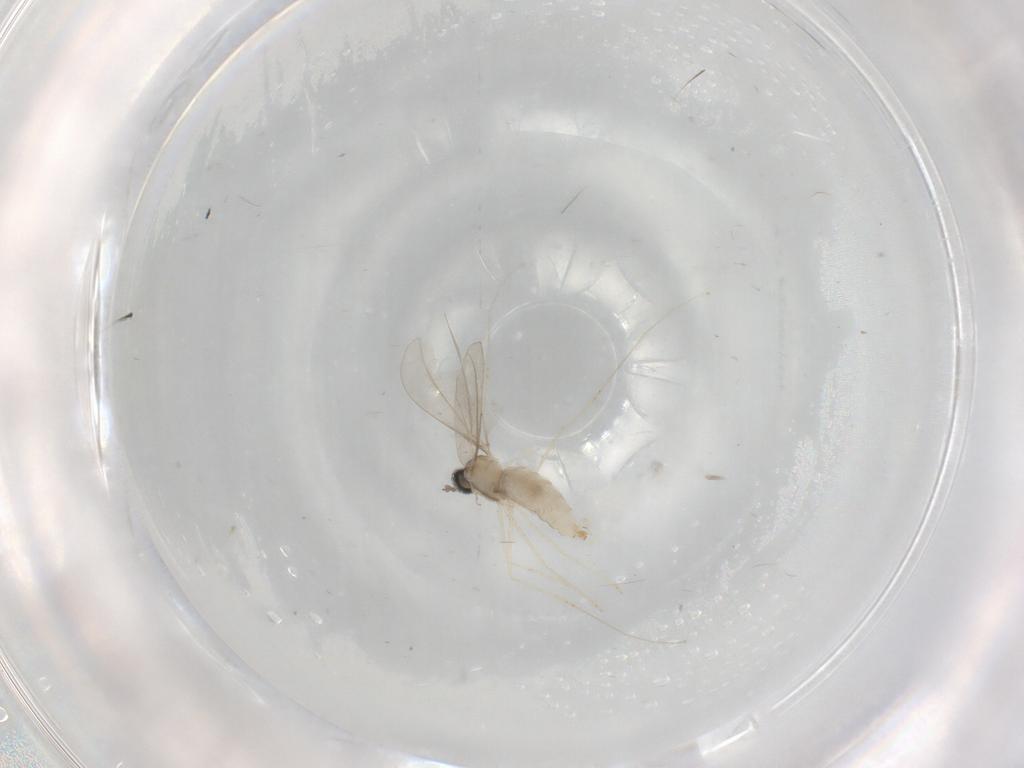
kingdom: Animalia
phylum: Arthropoda
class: Insecta
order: Diptera
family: Cecidomyiidae
